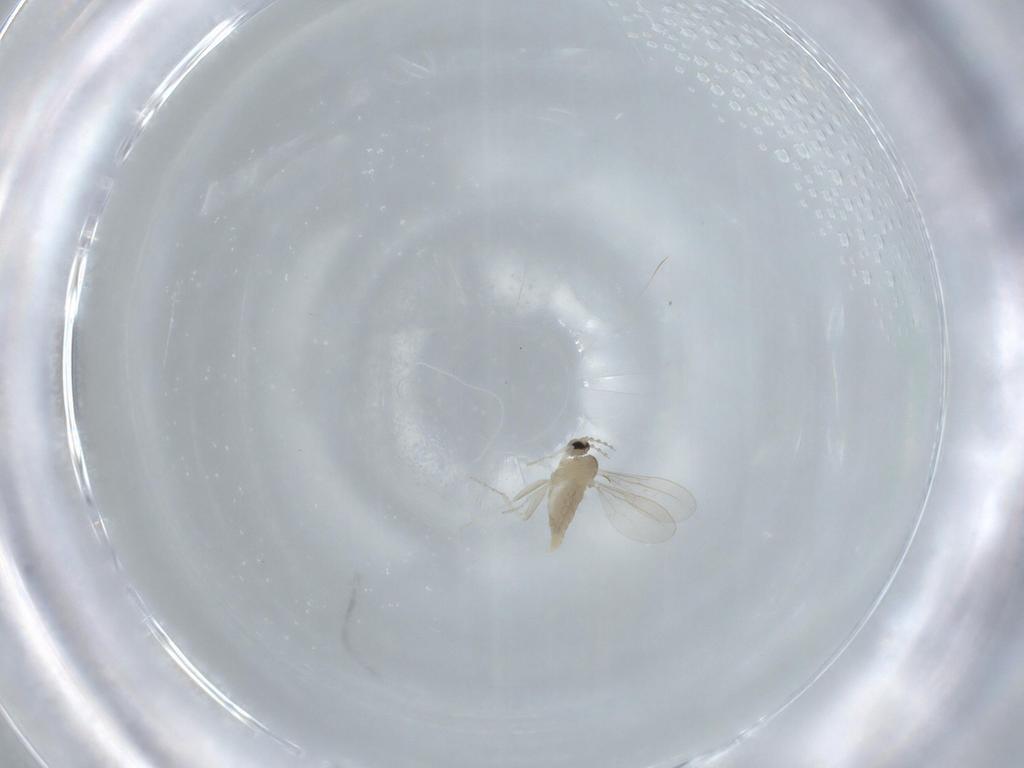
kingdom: Animalia
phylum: Arthropoda
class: Insecta
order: Diptera
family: Cecidomyiidae
